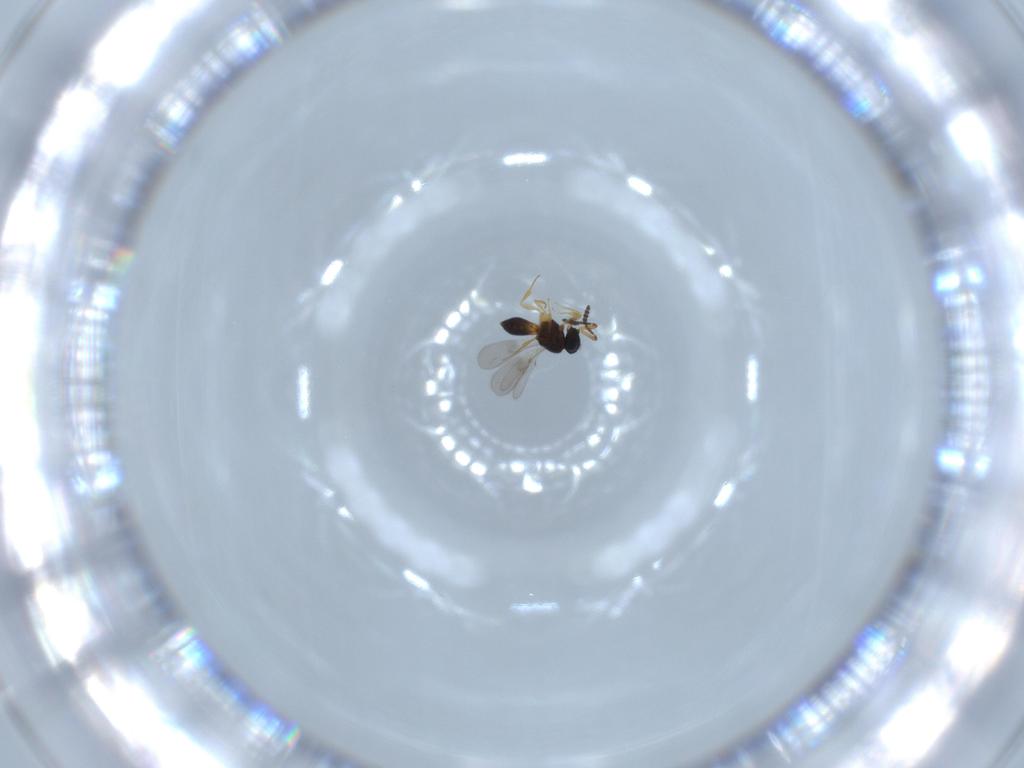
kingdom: Animalia
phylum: Arthropoda
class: Insecta
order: Hymenoptera
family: Scelionidae
